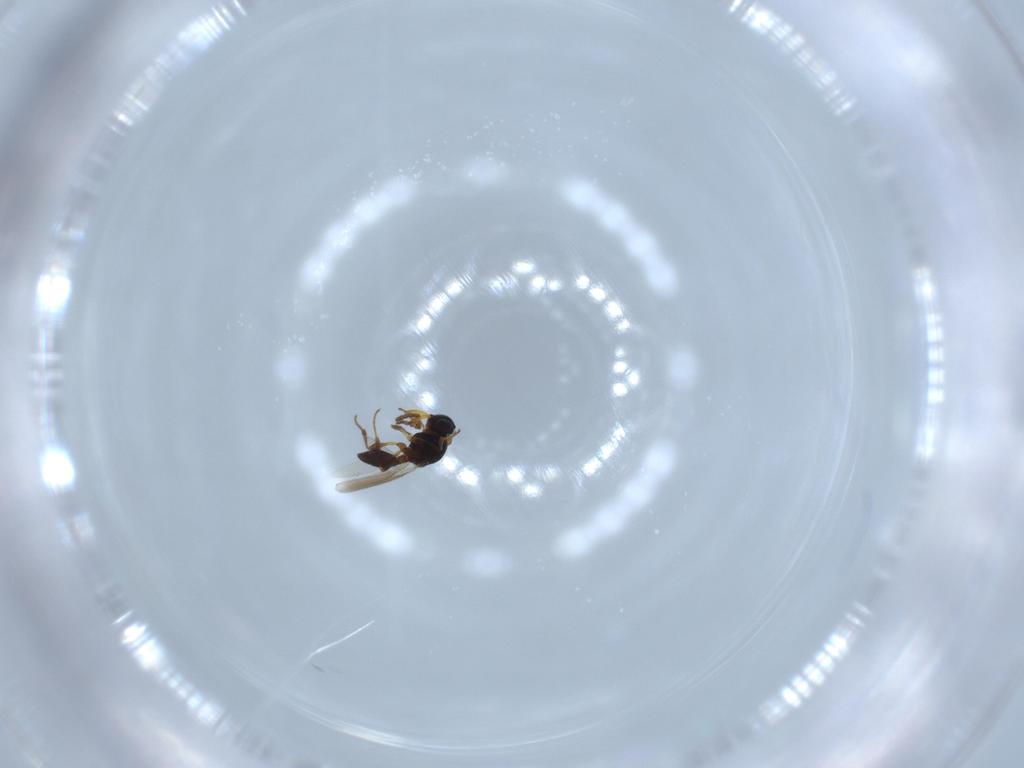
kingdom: Animalia
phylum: Arthropoda
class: Insecta
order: Hymenoptera
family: Platygastridae
